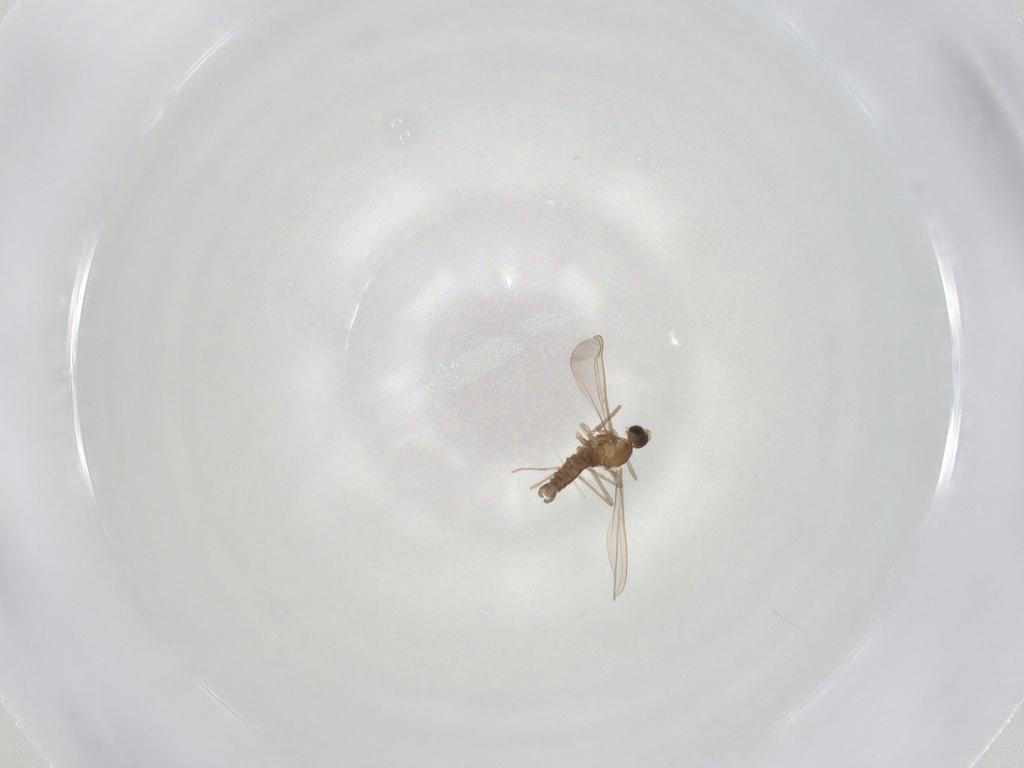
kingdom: Animalia
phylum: Arthropoda
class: Insecta
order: Diptera
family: Cecidomyiidae
